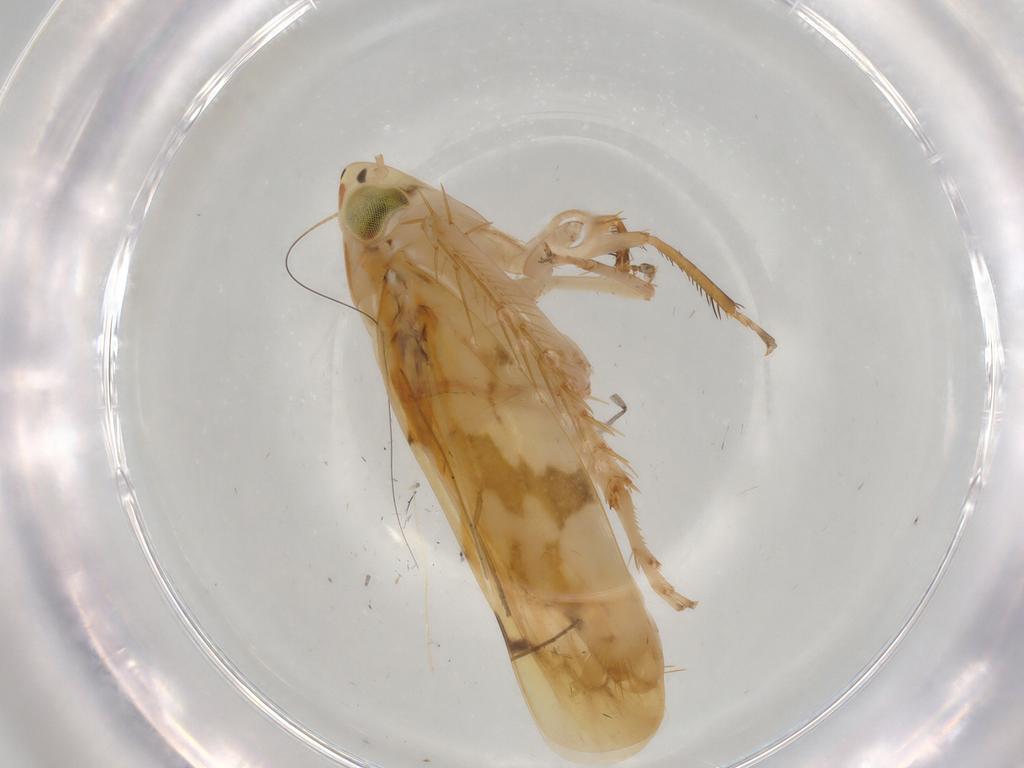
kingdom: Animalia
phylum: Arthropoda
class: Insecta
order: Hemiptera
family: Cicadellidae
